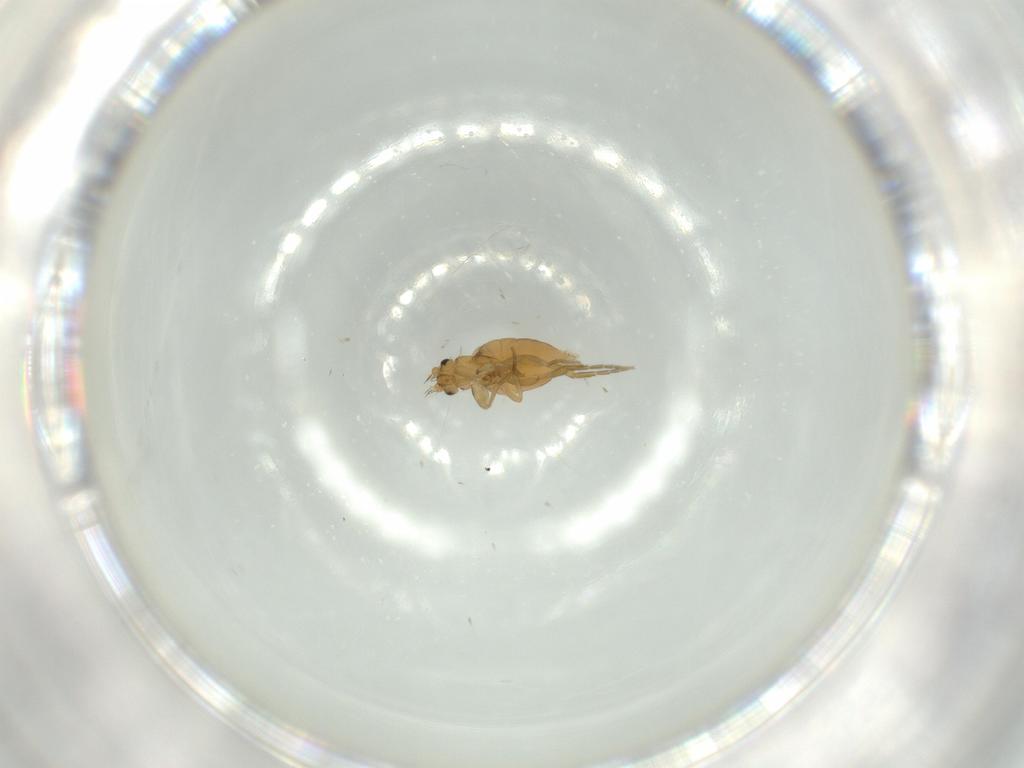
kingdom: Animalia
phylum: Arthropoda
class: Insecta
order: Diptera
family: Phoridae
